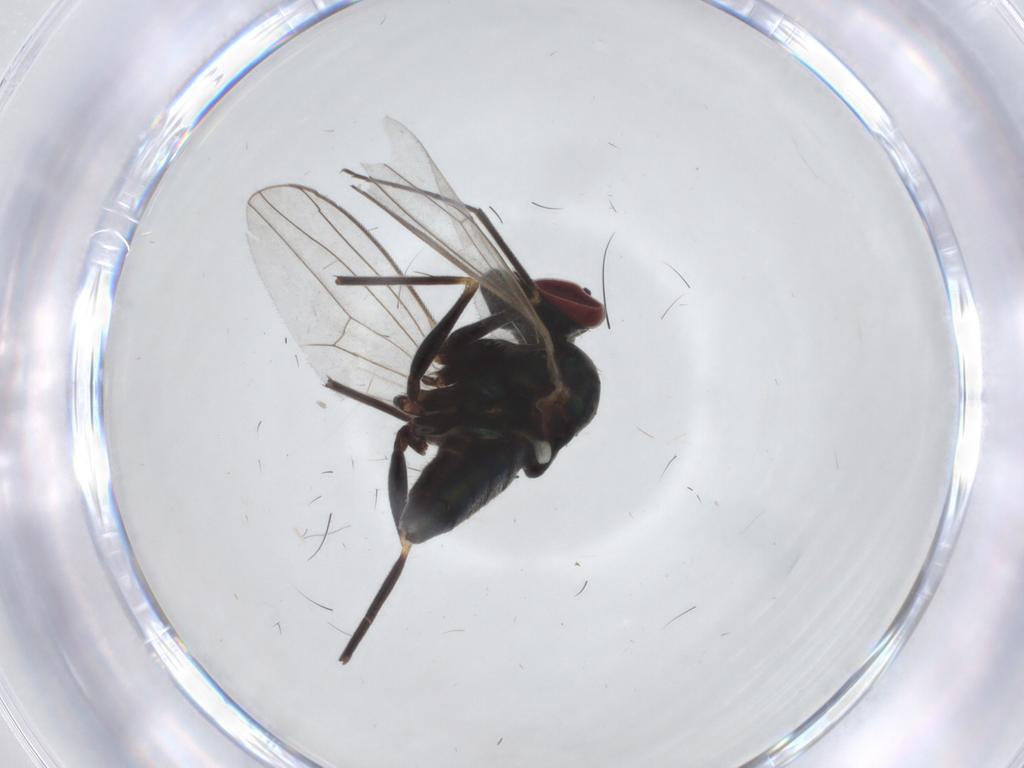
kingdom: Animalia
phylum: Arthropoda
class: Insecta
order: Diptera
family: Dolichopodidae
